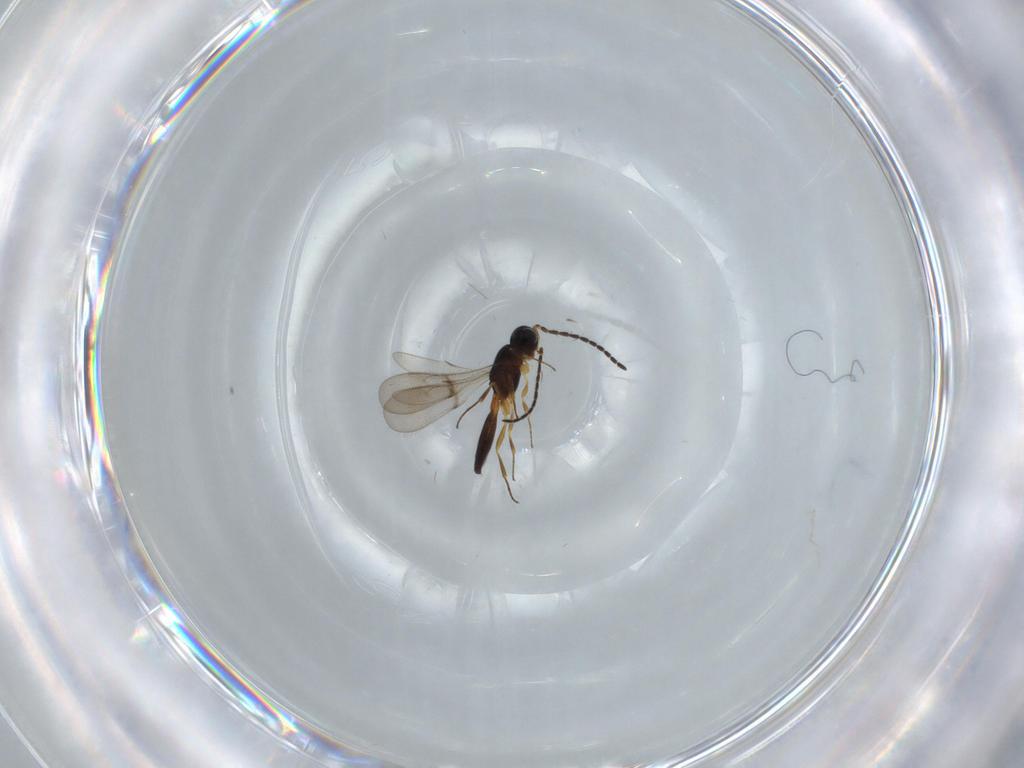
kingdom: Animalia
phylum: Arthropoda
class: Insecta
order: Hymenoptera
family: Scelionidae
